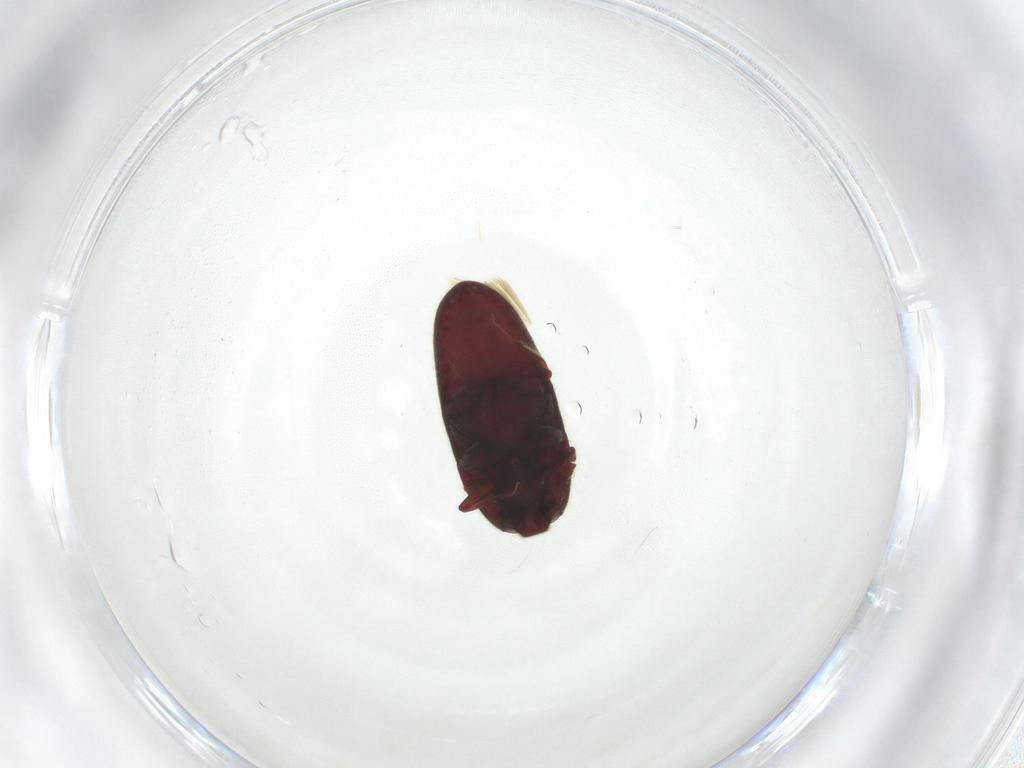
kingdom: Animalia
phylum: Arthropoda
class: Insecta
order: Coleoptera
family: Throscidae
